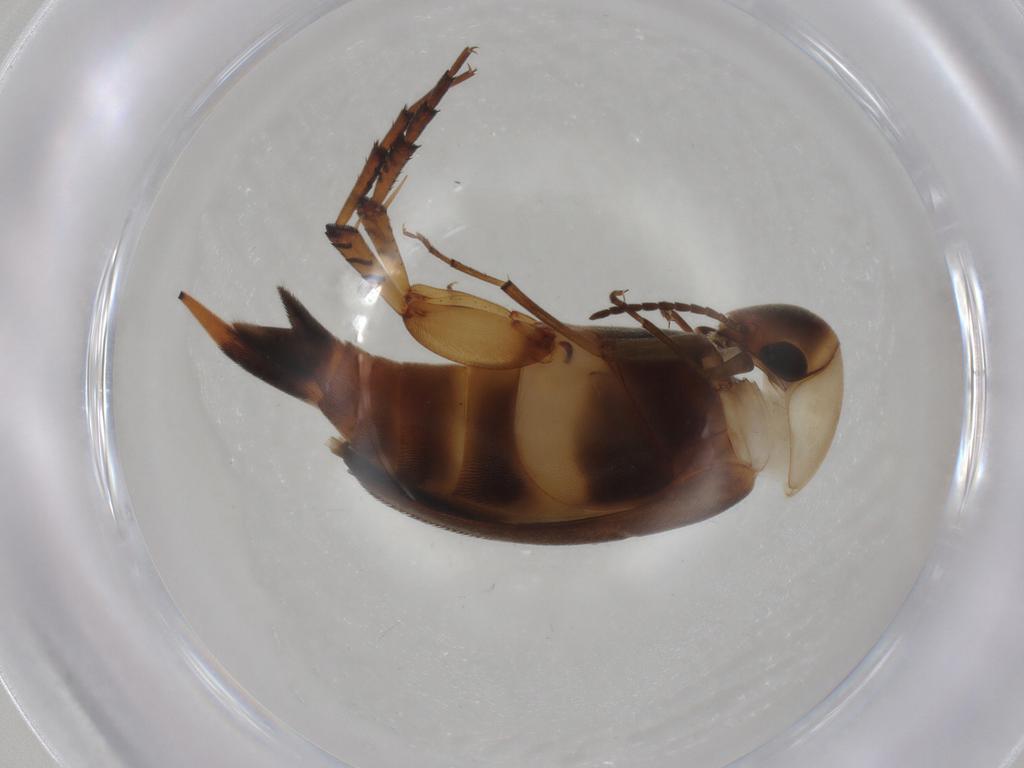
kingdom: Animalia
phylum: Arthropoda
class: Insecta
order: Coleoptera
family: Mordellidae
